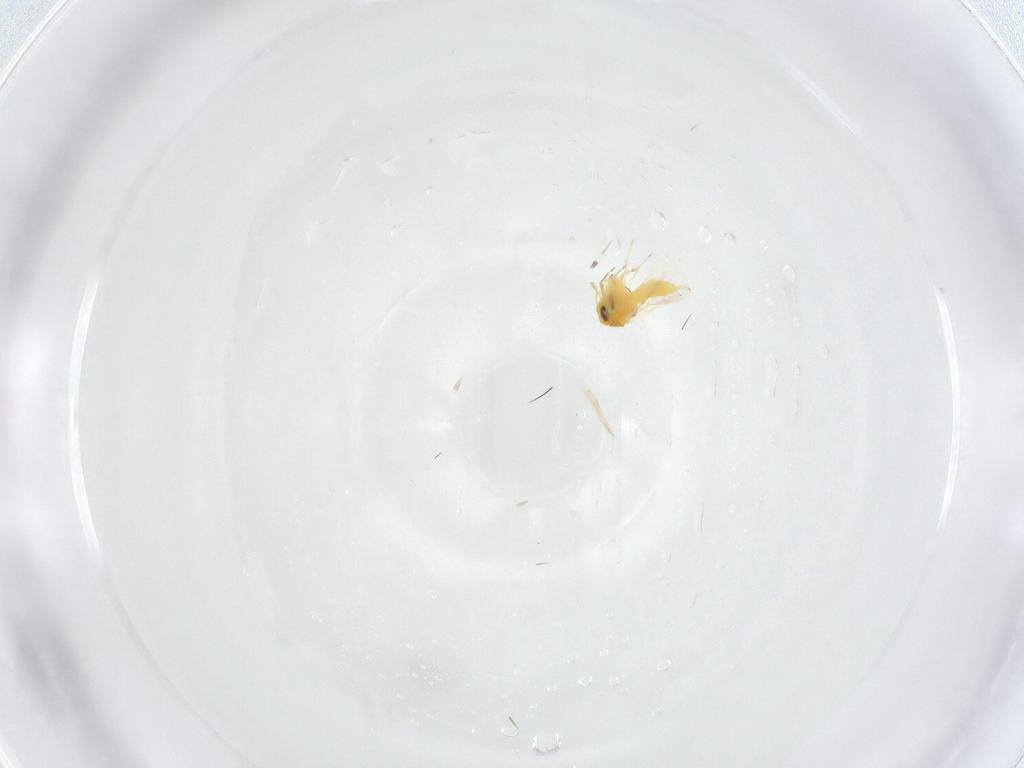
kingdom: Animalia
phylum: Arthropoda
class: Insecta
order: Hemiptera
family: Aleyrodidae
